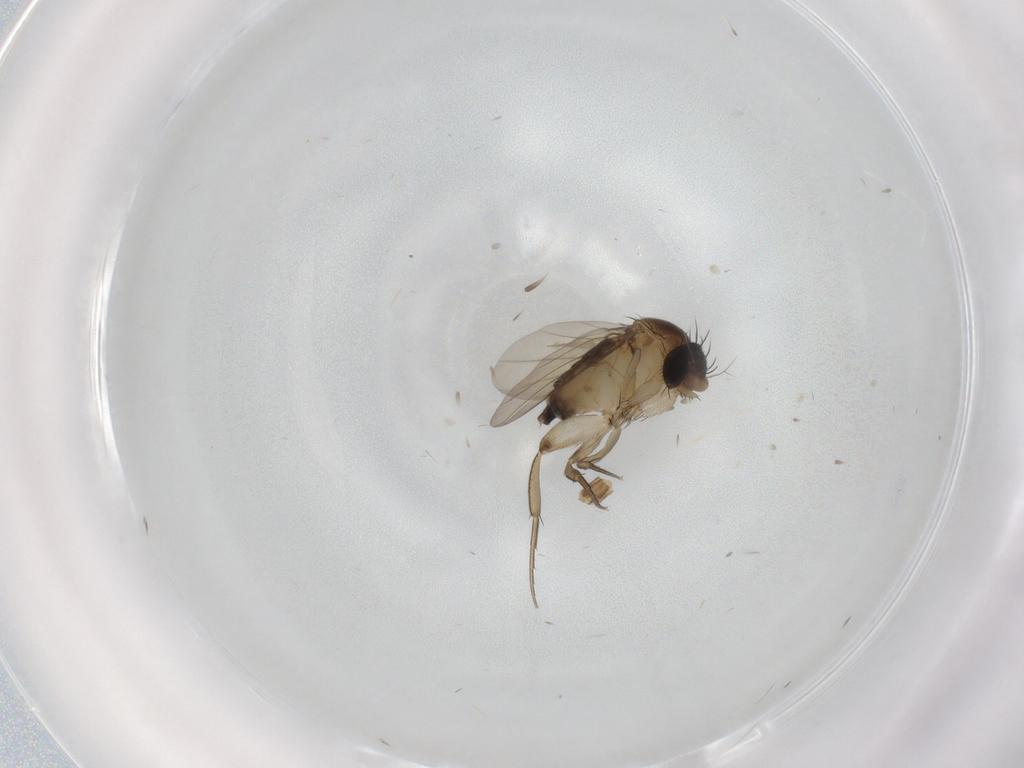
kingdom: Animalia
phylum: Arthropoda
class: Insecta
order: Diptera
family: Phoridae
